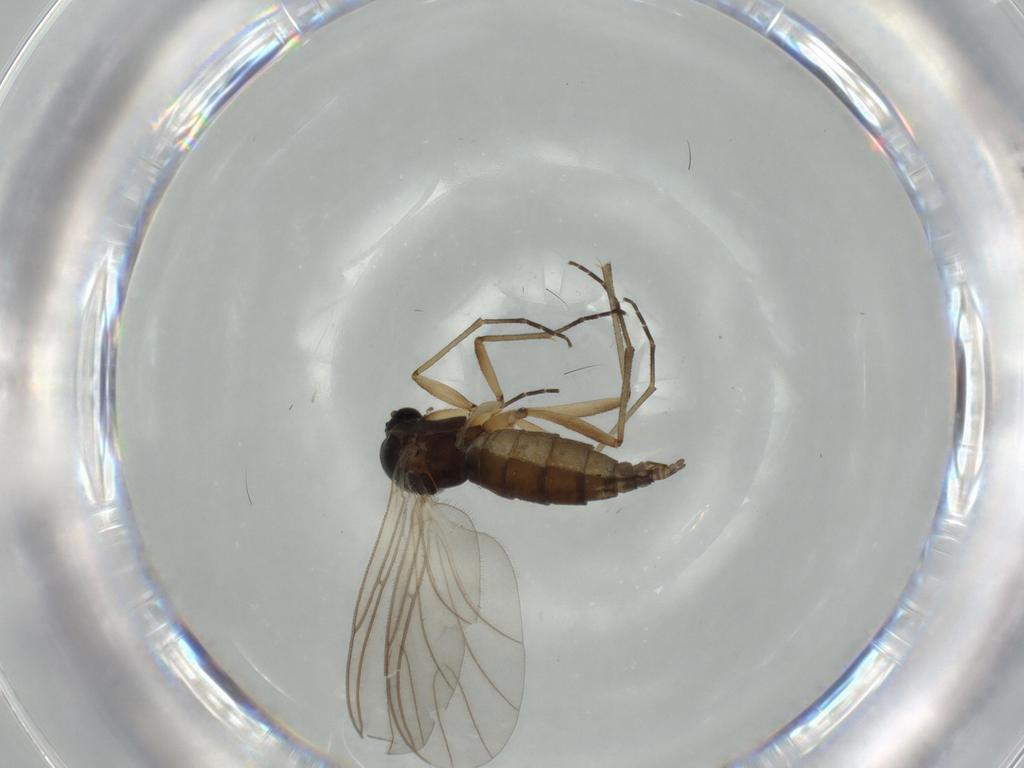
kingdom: Animalia
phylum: Arthropoda
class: Insecta
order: Diptera
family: Sciaridae
